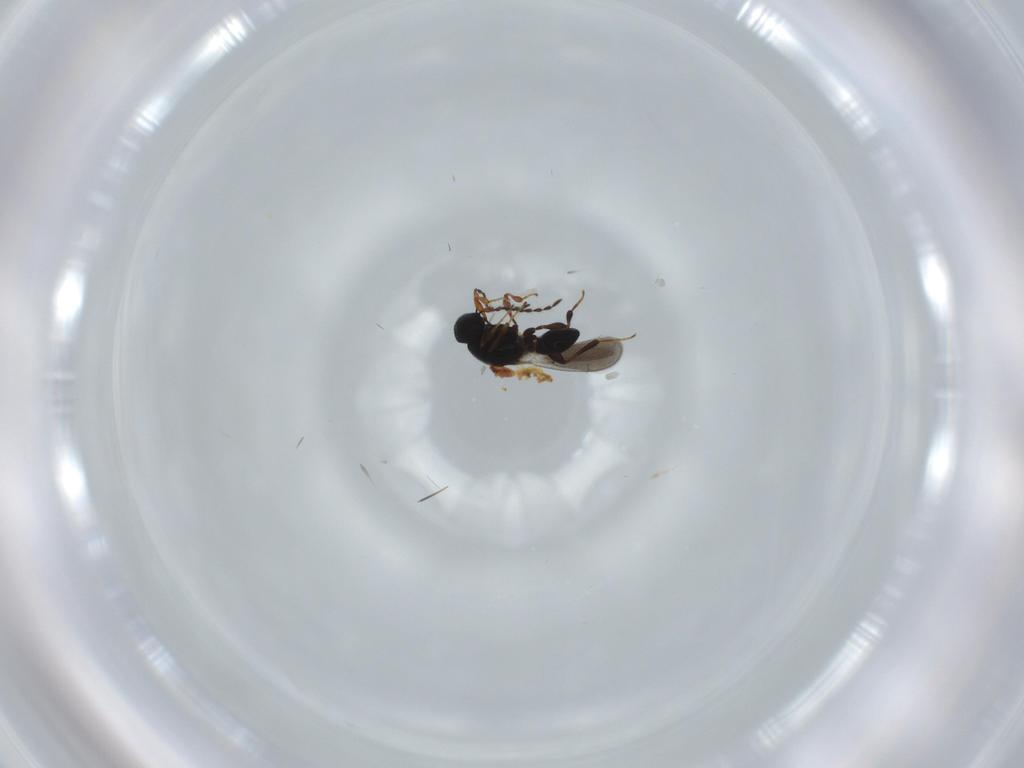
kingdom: Animalia
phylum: Arthropoda
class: Insecta
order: Hymenoptera
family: Platygastridae
